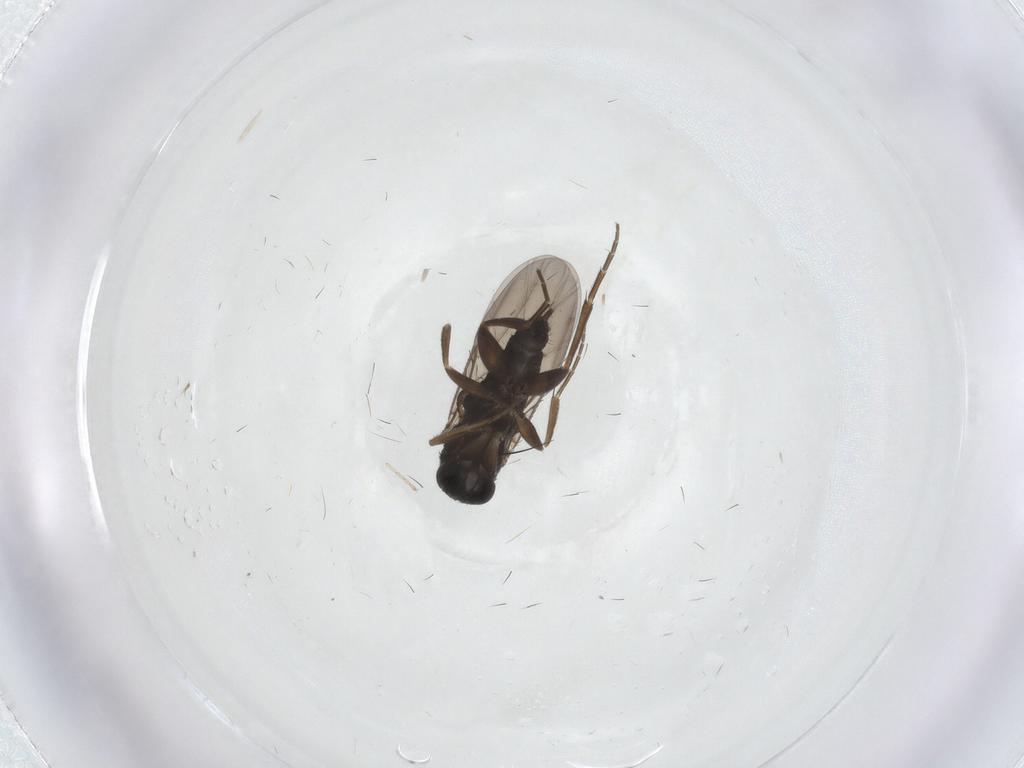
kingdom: Animalia
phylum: Arthropoda
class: Insecta
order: Diptera
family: Phoridae
